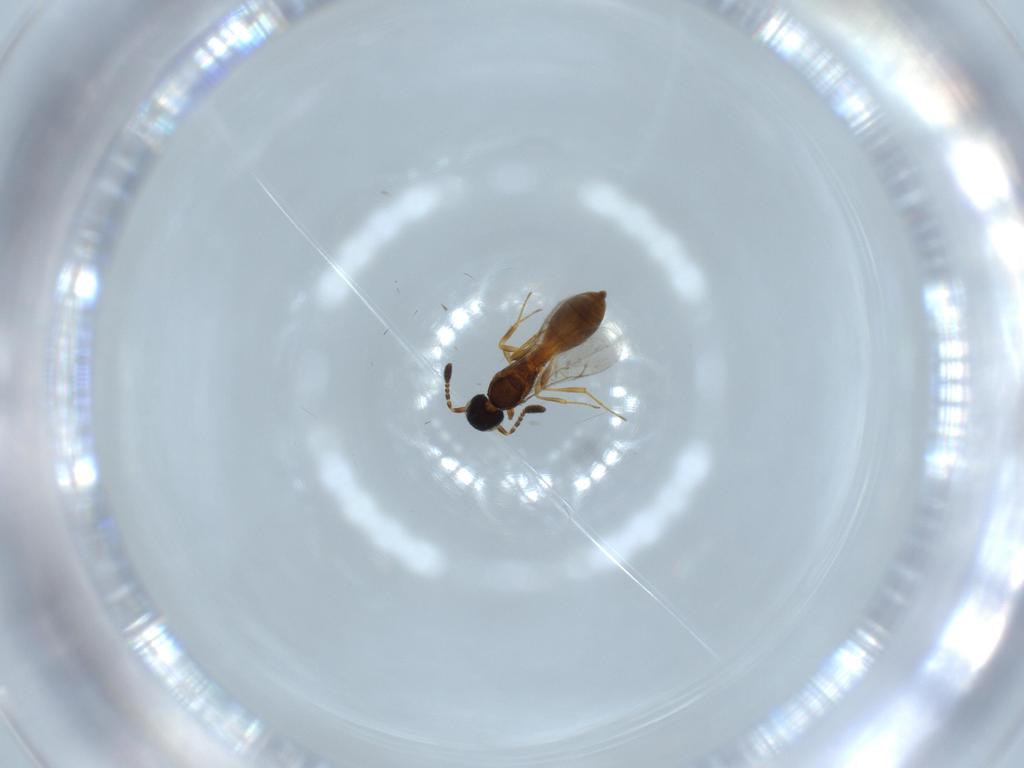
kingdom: Animalia
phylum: Arthropoda
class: Insecta
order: Hymenoptera
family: Scelionidae
